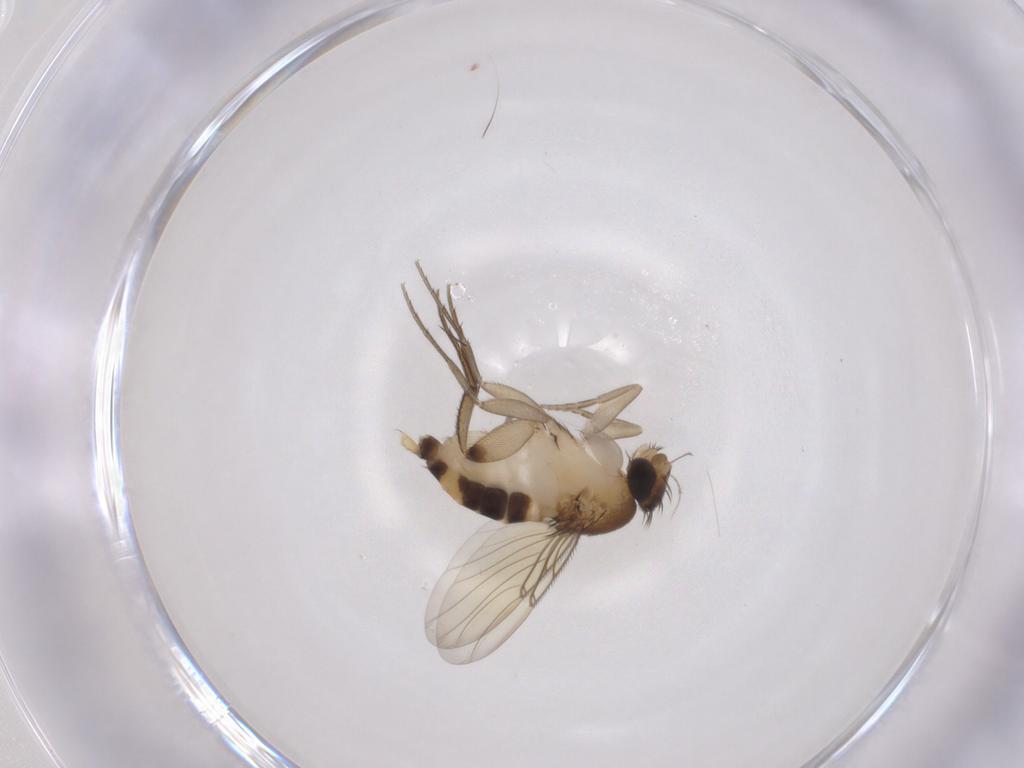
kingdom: Animalia
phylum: Arthropoda
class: Insecta
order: Diptera
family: Phoridae
